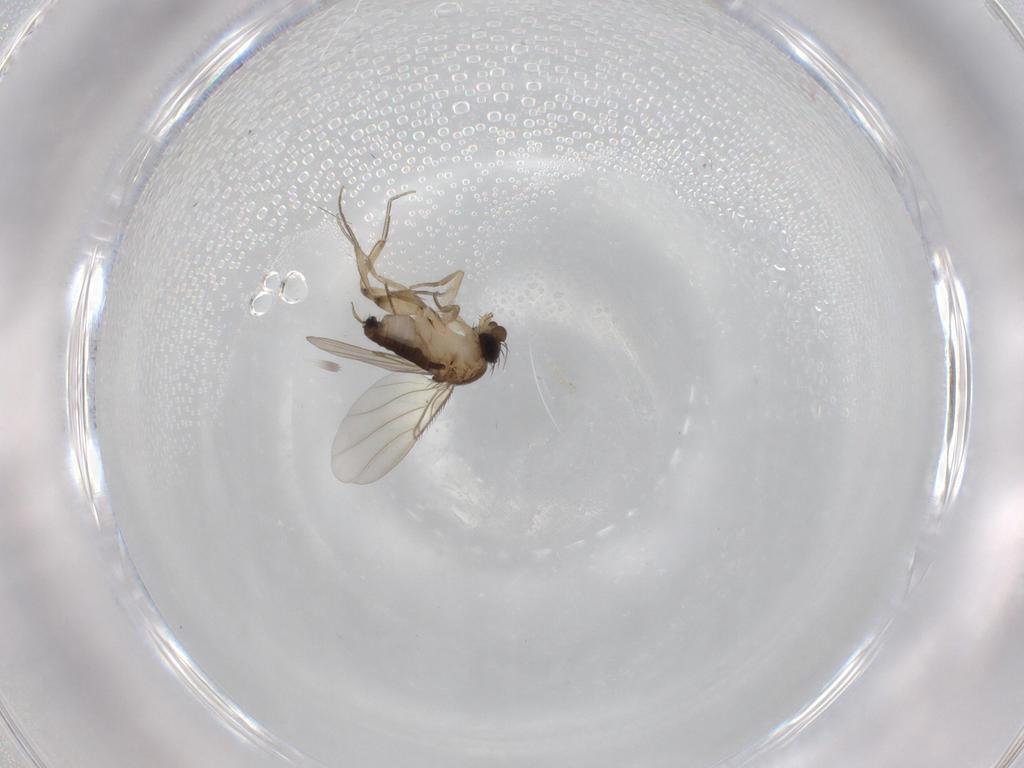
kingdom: Animalia
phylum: Arthropoda
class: Insecta
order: Diptera
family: Phoridae
